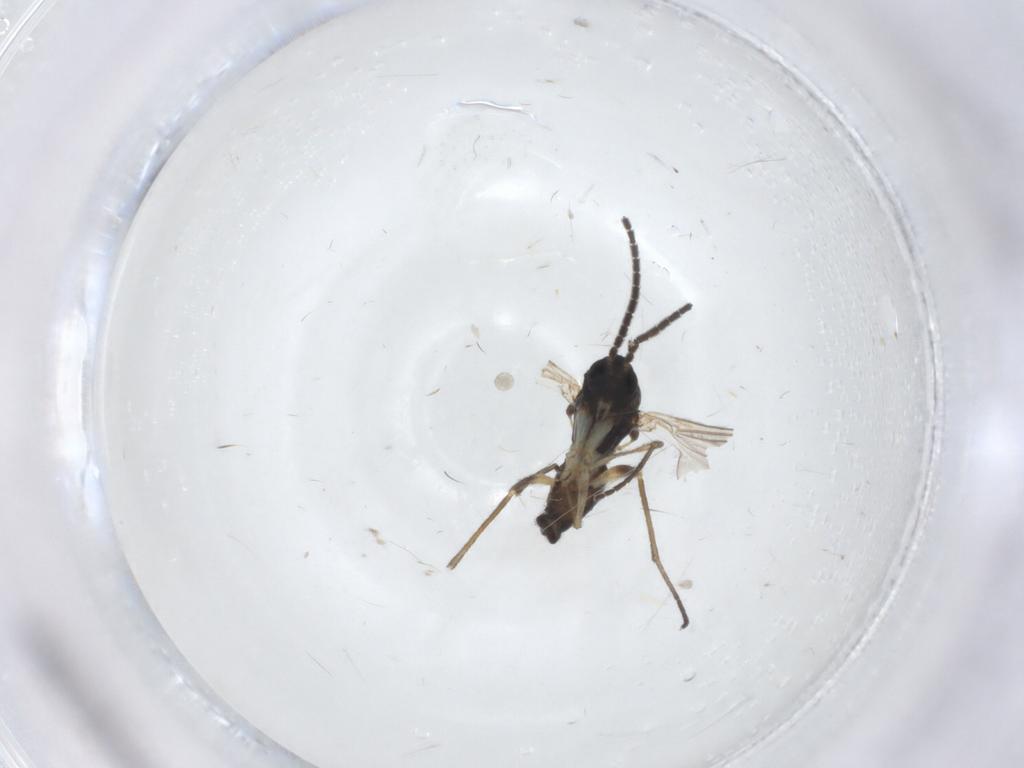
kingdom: Animalia
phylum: Arthropoda
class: Insecta
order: Diptera
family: Sciaridae
